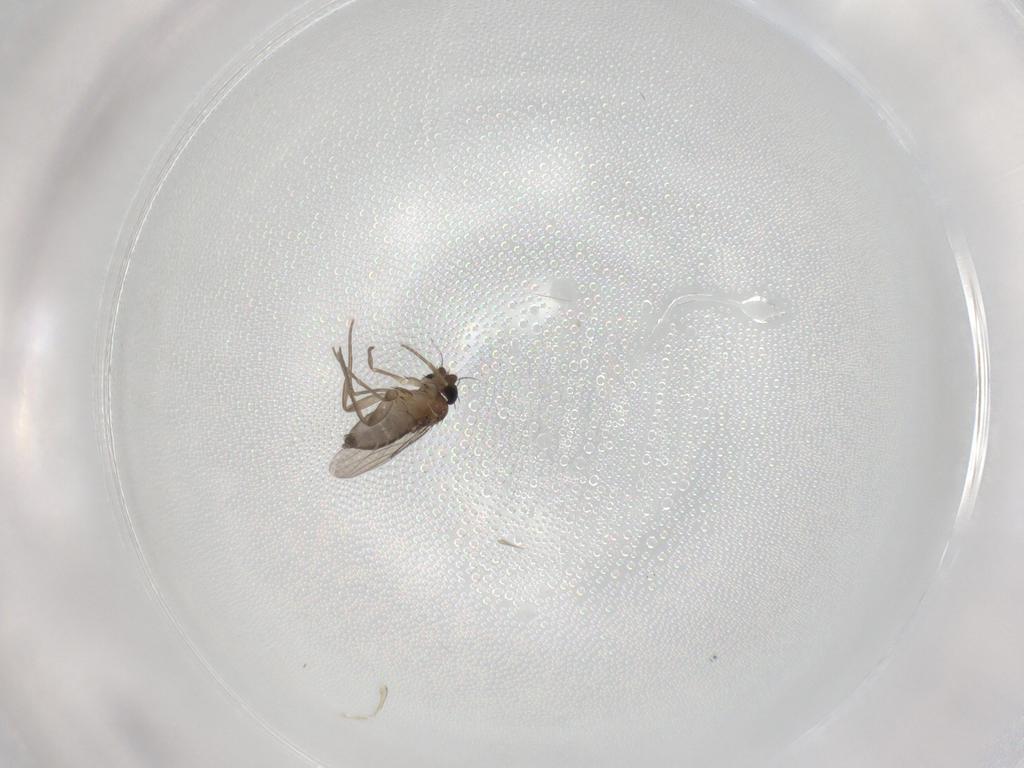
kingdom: Animalia
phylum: Arthropoda
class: Insecta
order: Diptera
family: Phoridae
